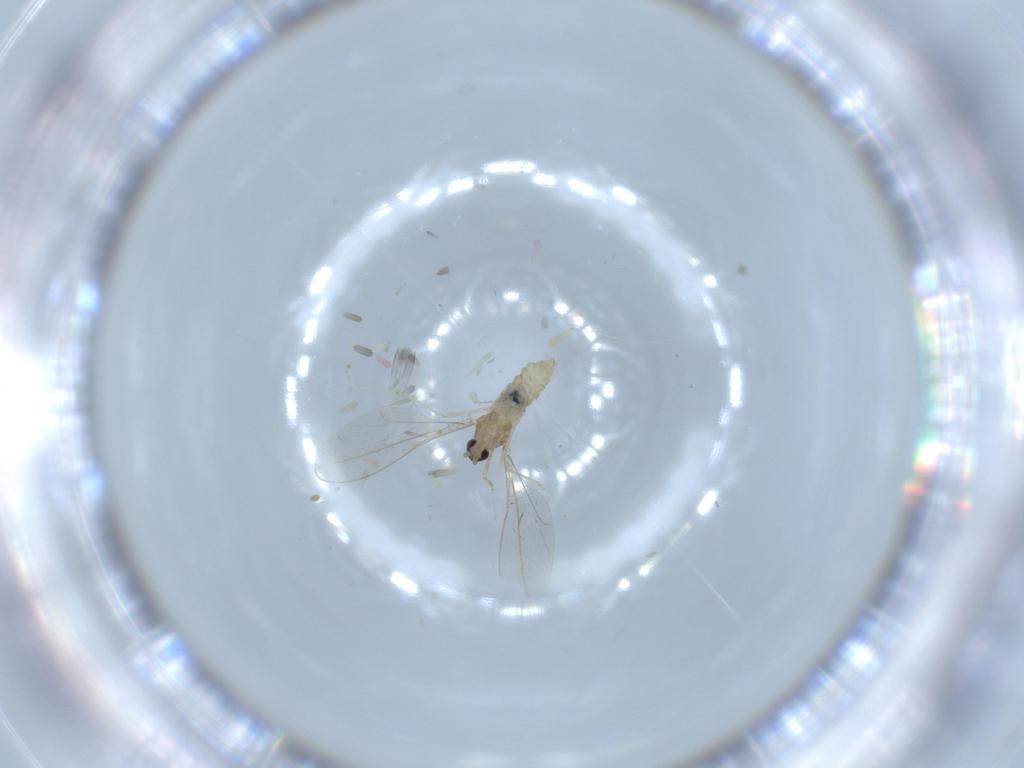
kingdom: Animalia
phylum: Arthropoda
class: Insecta
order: Diptera
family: Cecidomyiidae
